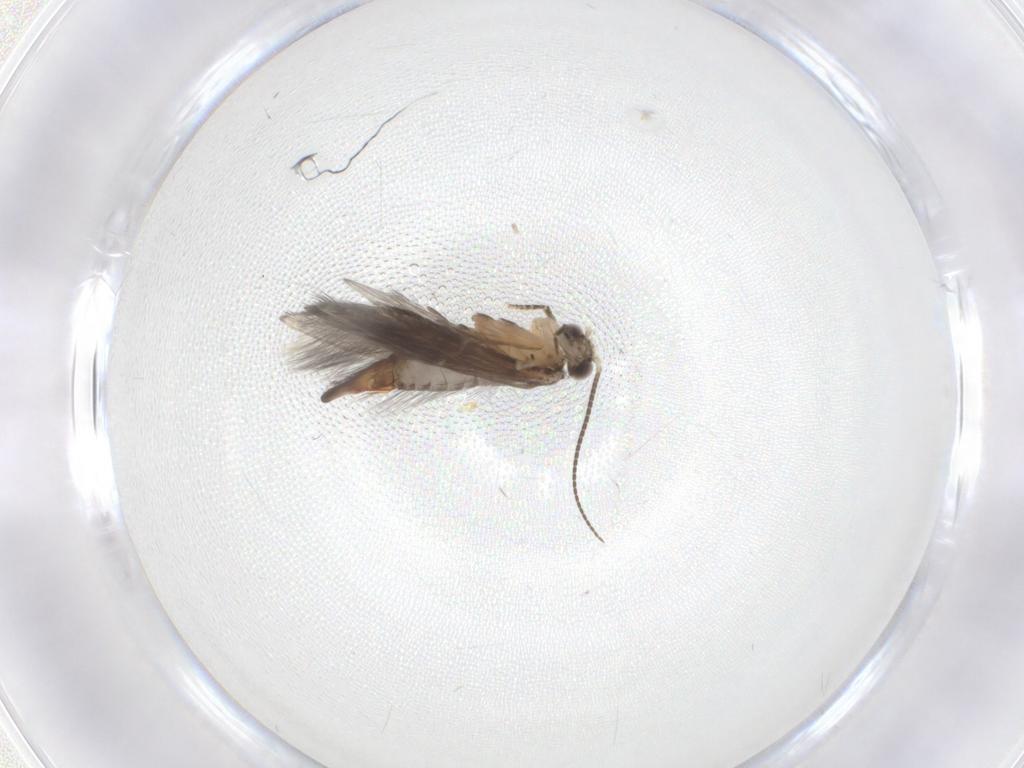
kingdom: Animalia
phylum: Arthropoda
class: Insecta
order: Trichoptera
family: Hydroptilidae
